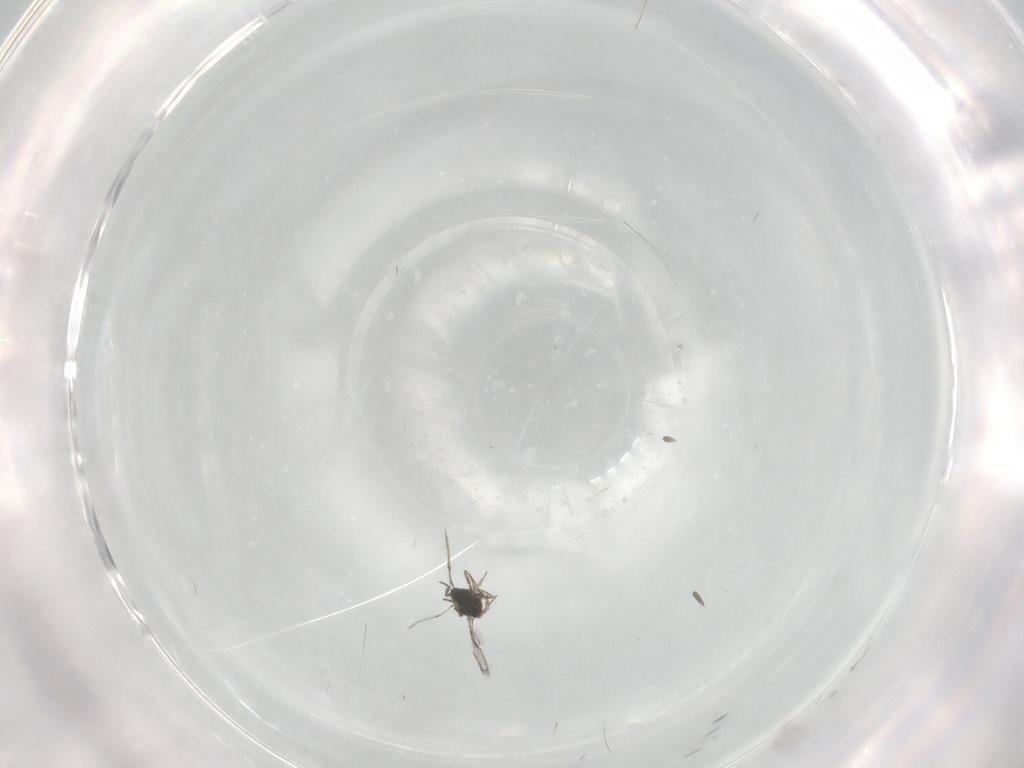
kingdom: Animalia
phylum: Arthropoda
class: Insecta
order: Hymenoptera
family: Trichogrammatidae
